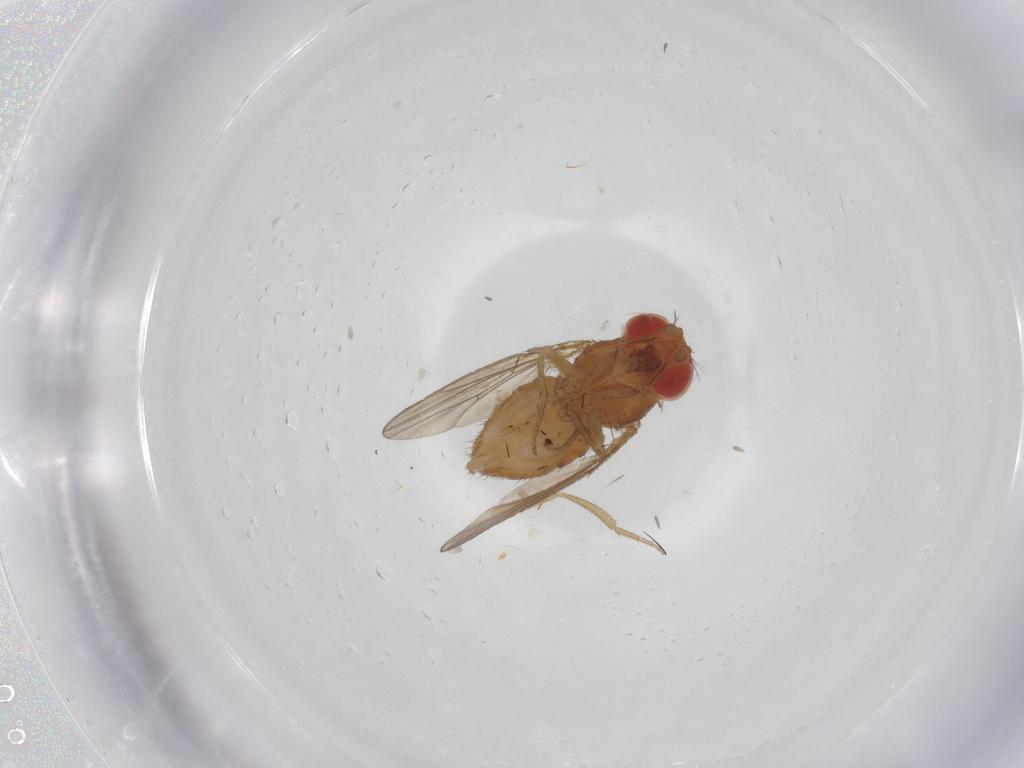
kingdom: Animalia
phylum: Arthropoda
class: Insecta
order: Diptera
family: Drosophilidae
